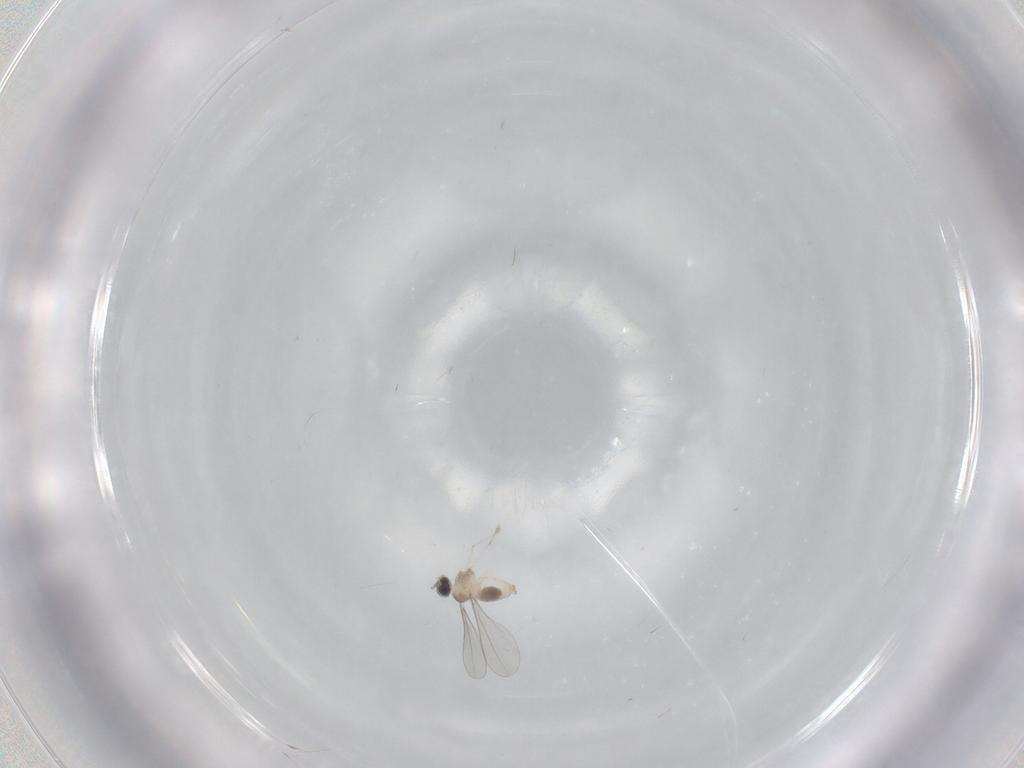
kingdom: Animalia
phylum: Arthropoda
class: Insecta
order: Diptera
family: Cecidomyiidae
